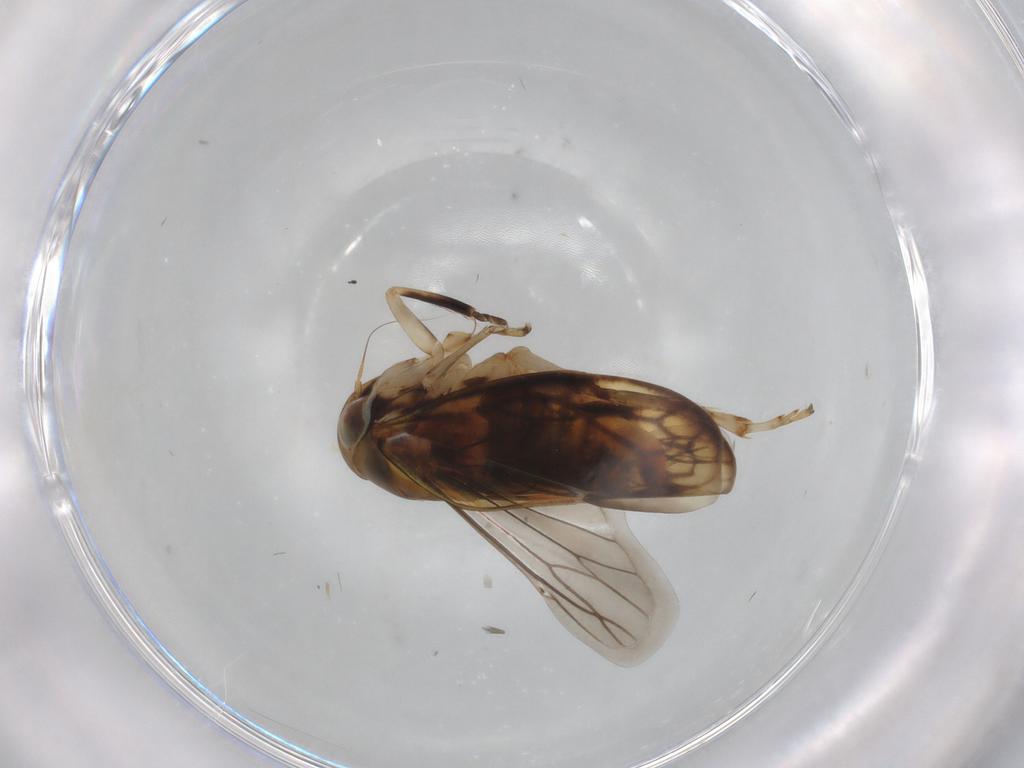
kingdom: Animalia
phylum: Arthropoda
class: Insecta
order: Hemiptera
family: Cicadellidae
